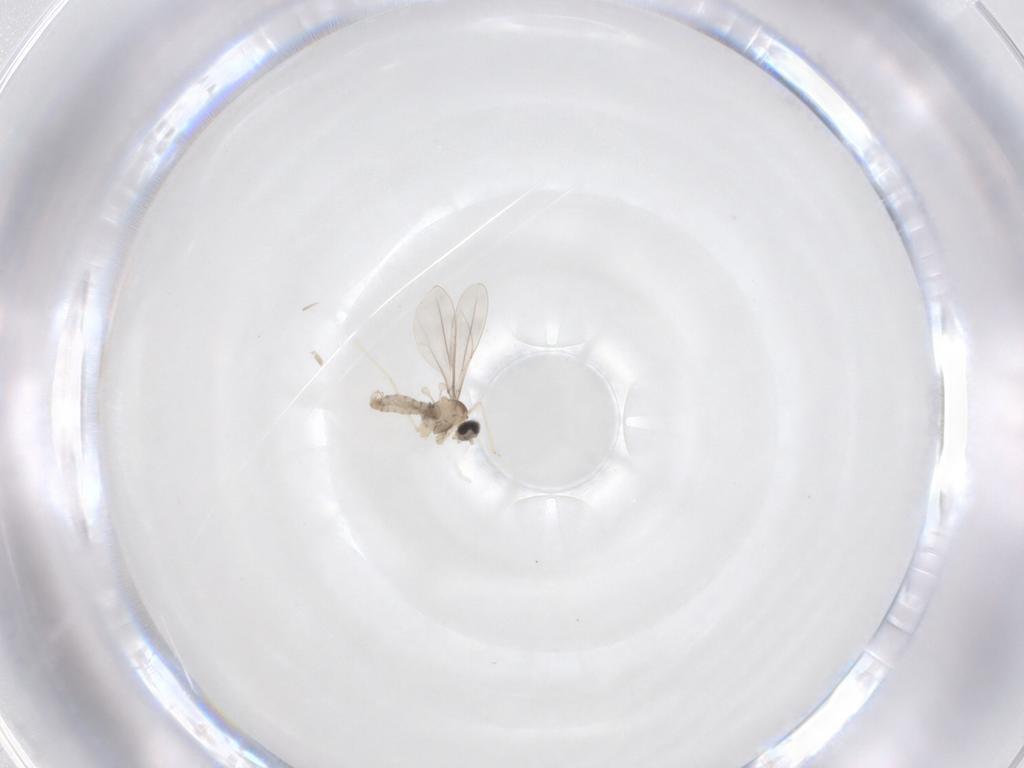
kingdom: Animalia
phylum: Arthropoda
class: Insecta
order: Diptera
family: Cecidomyiidae
